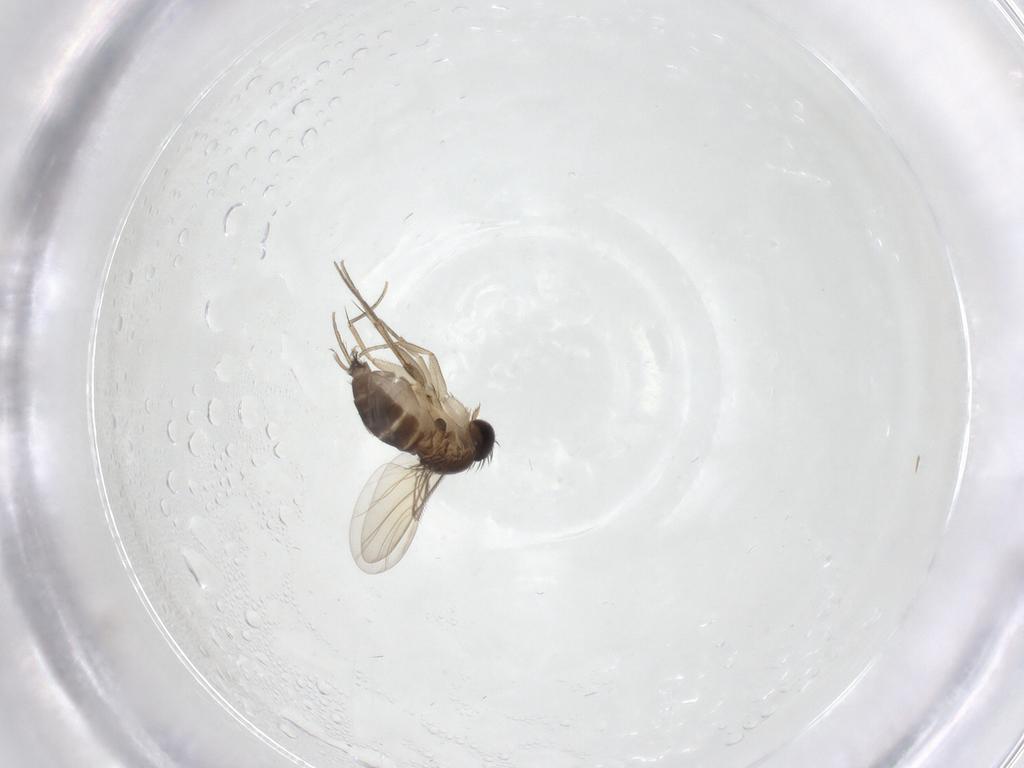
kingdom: Animalia
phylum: Arthropoda
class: Insecta
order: Diptera
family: Phoridae
